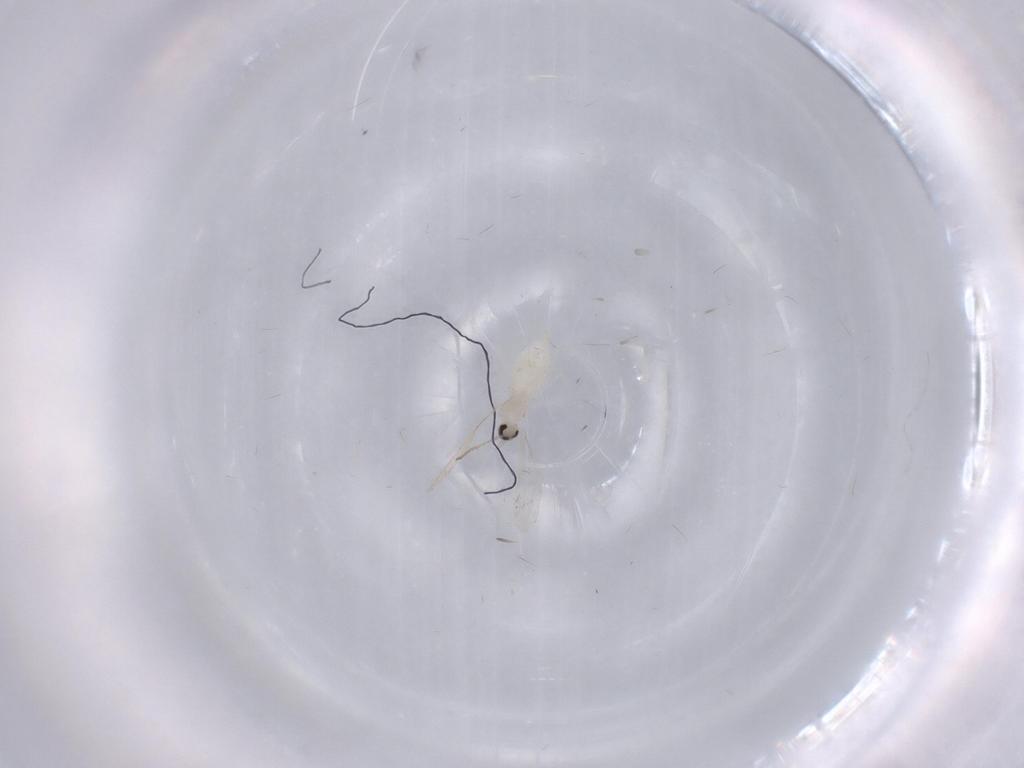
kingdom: Animalia
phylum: Arthropoda
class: Insecta
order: Diptera
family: Cecidomyiidae
